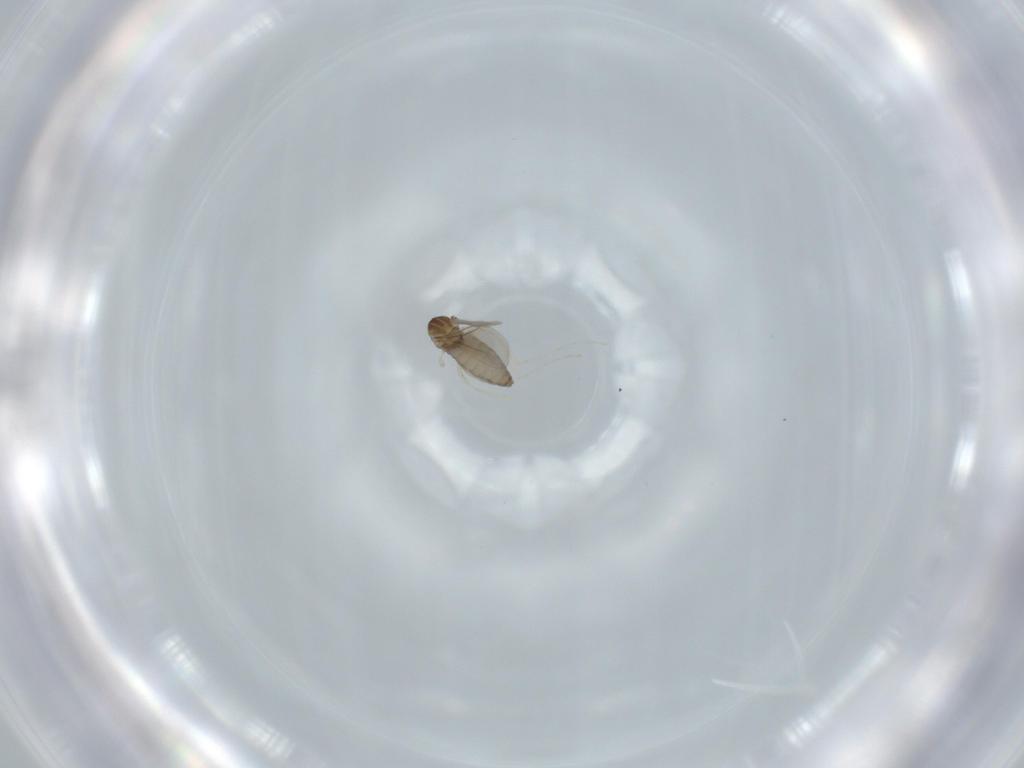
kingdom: Animalia
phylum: Arthropoda
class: Insecta
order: Diptera
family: Cecidomyiidae
